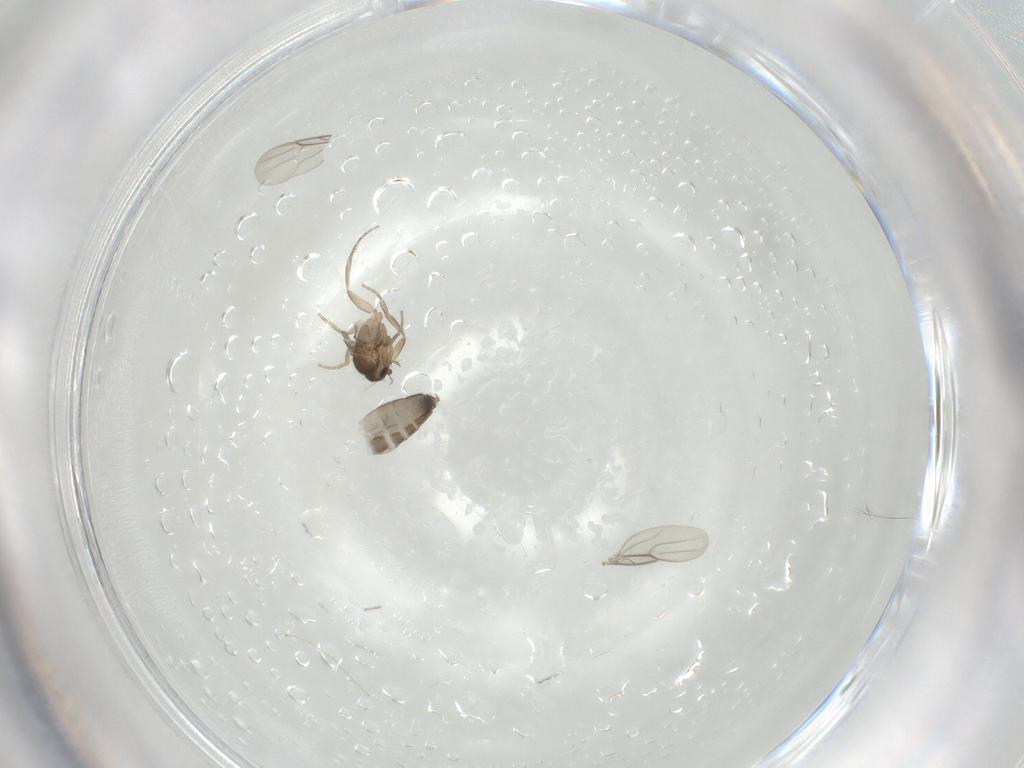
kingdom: Animalia
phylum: Arthropoda
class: Insecta
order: Diptera
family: Phoridae
